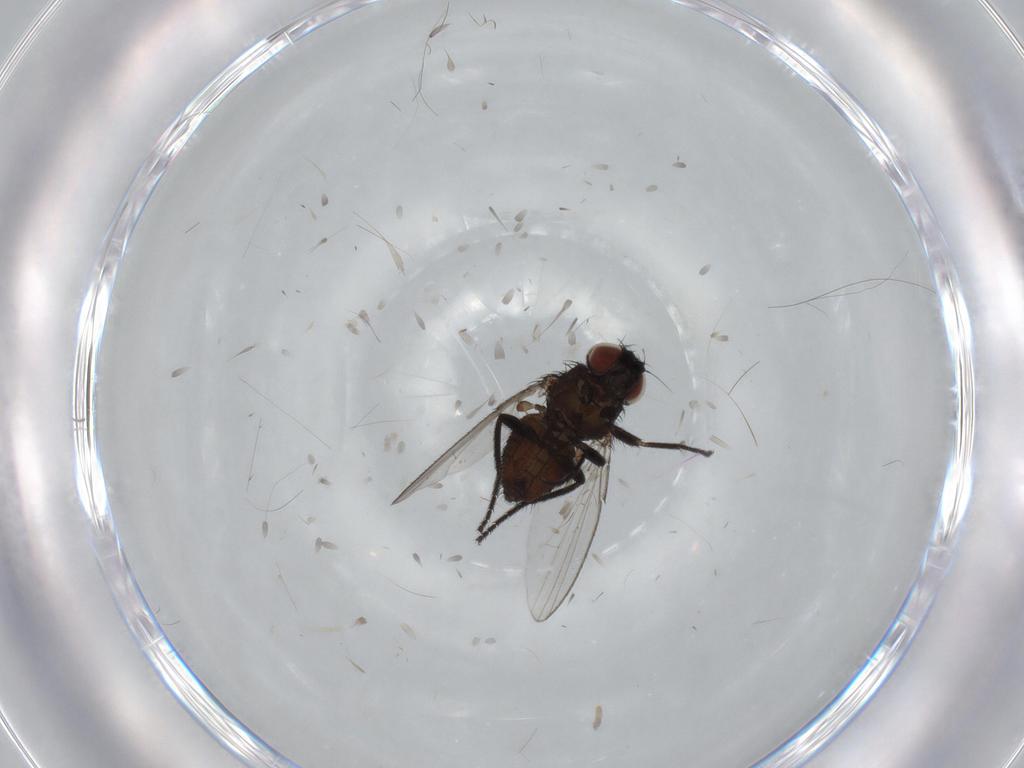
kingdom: Animalia
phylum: Arthropoda
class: Insecta
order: Diptera
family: Milichiidae
